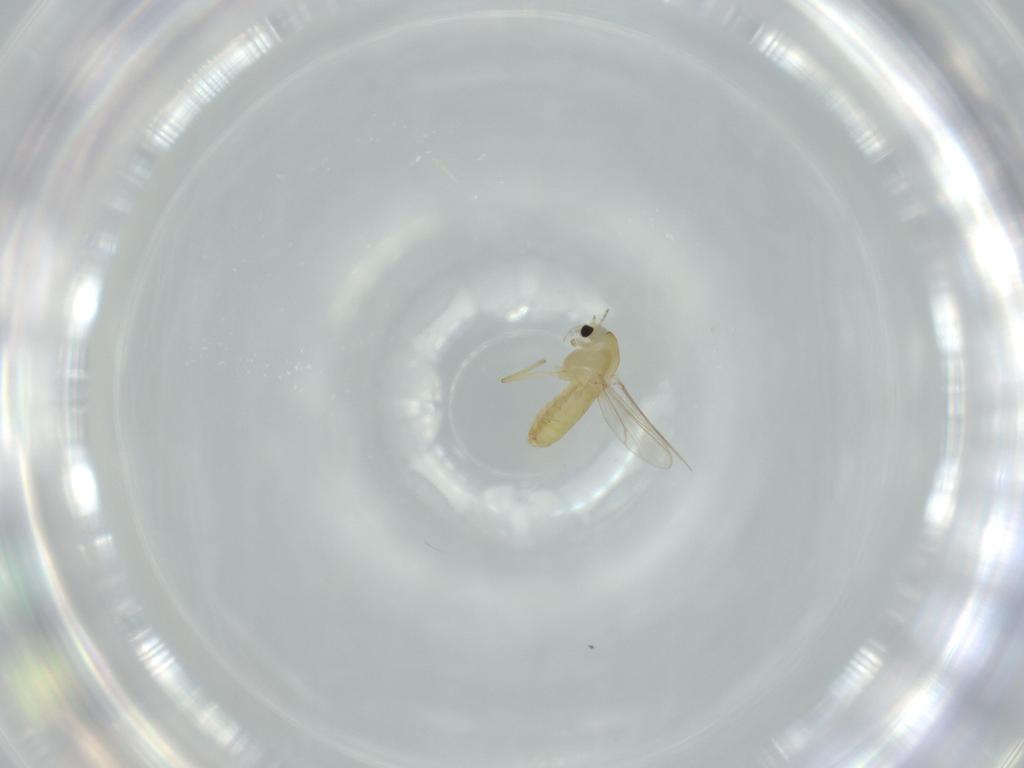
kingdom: Animalia
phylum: Arthropoda
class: Insecta
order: Diptera
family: Chironomidae
